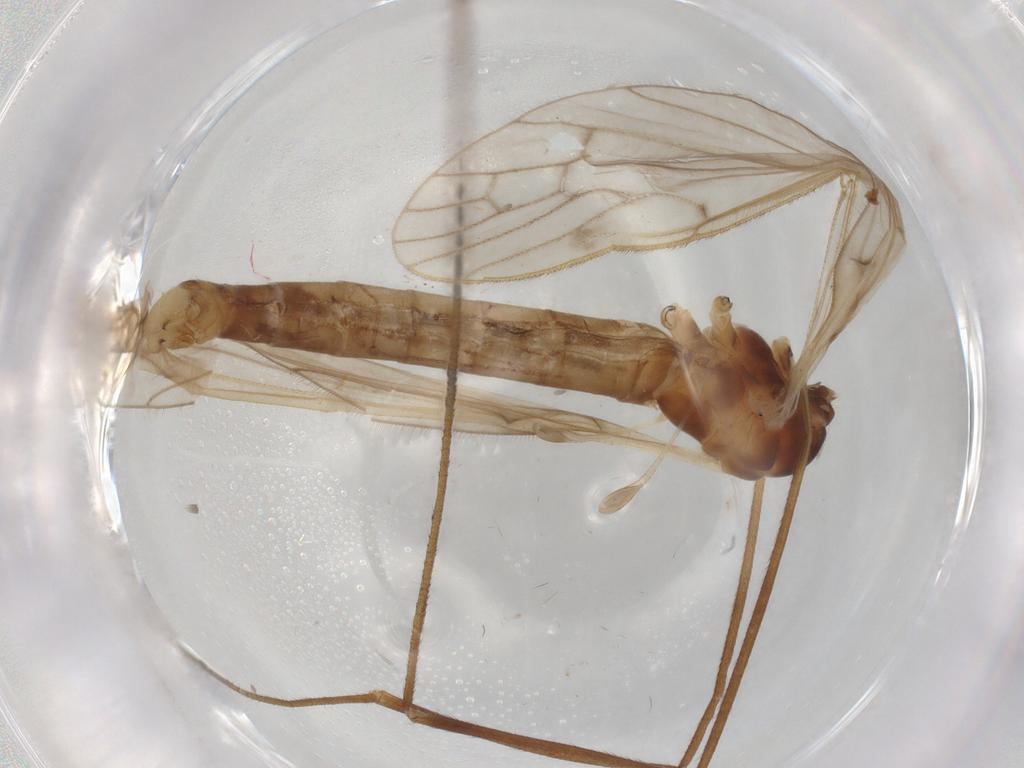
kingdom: Animalia
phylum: Arthropoda
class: Insecta
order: Diptera
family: Limoniidae
